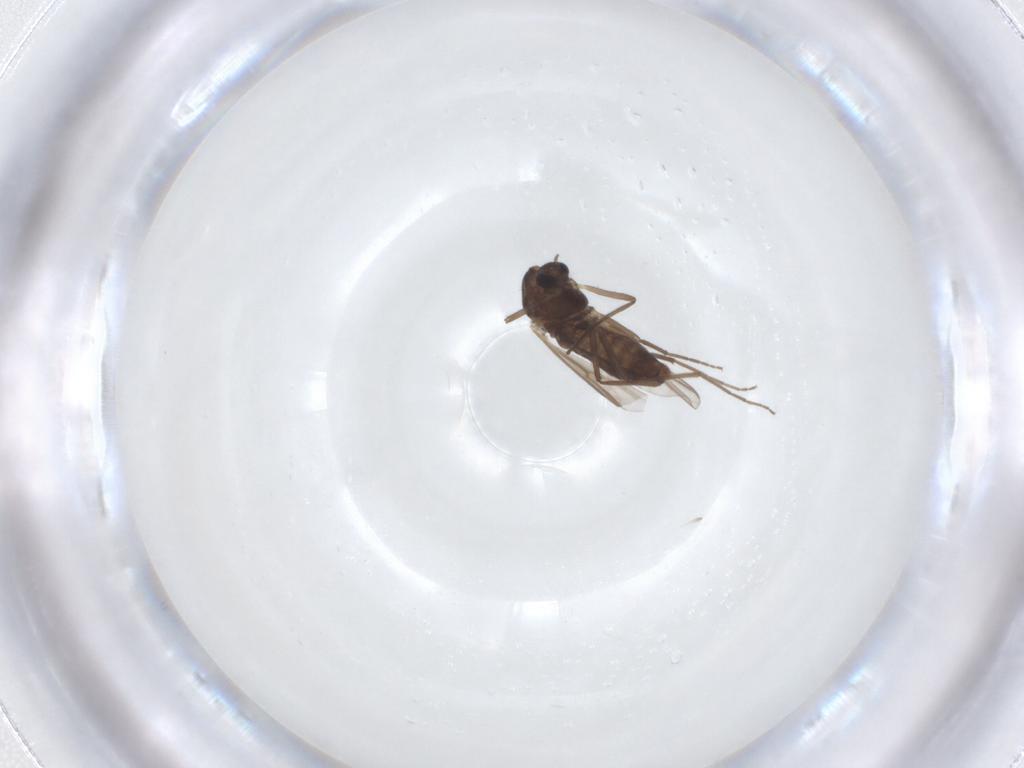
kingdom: Animalia
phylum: Arthropoda
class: Insecta
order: Diptera
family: Chironomidae
